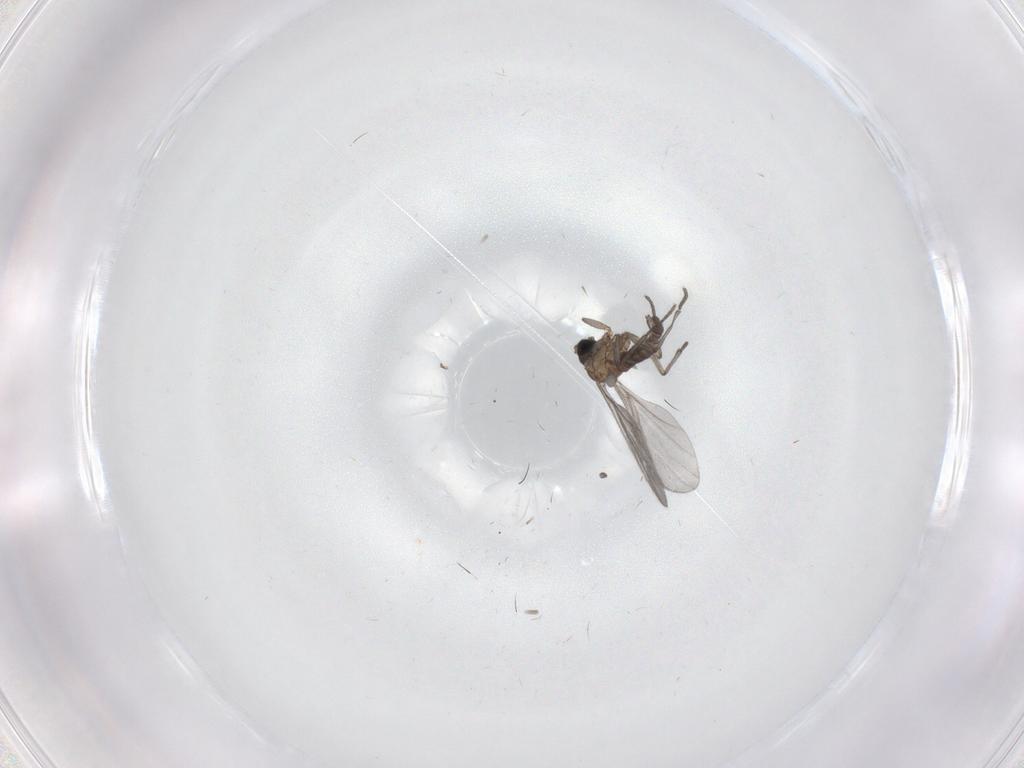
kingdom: Animalia
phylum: Arthropoda
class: Insecta
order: Diptera
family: Sciaridae
